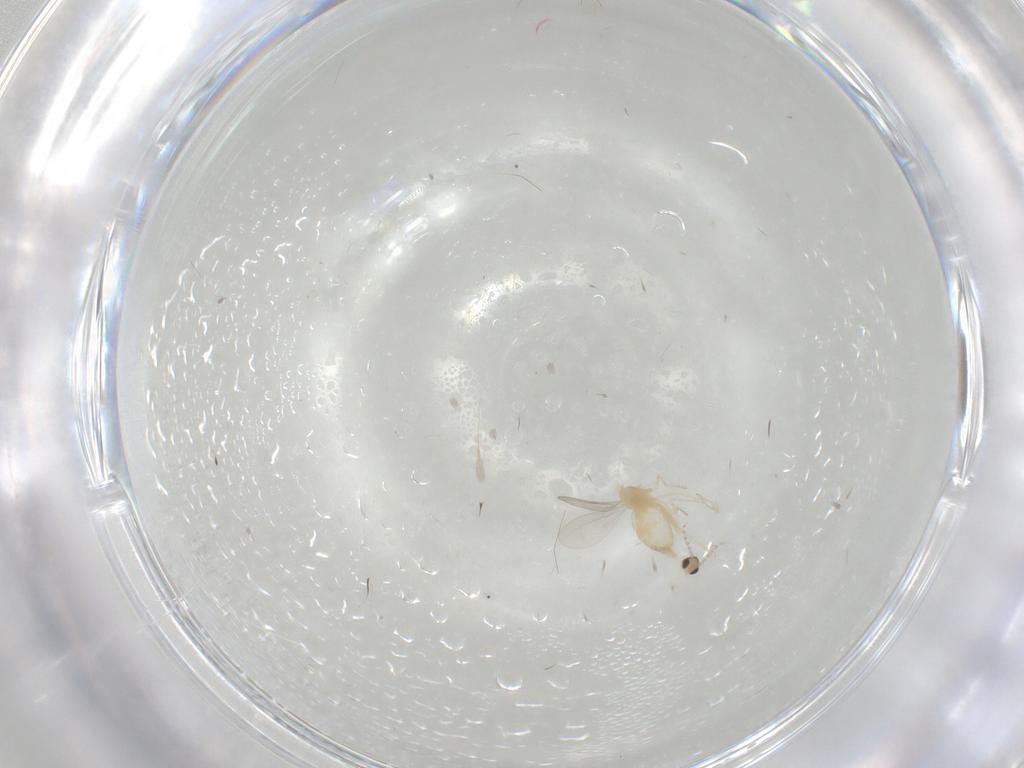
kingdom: Animalia
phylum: Arthropoda
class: Insecta
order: Diptera
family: Cecidomyiidae
